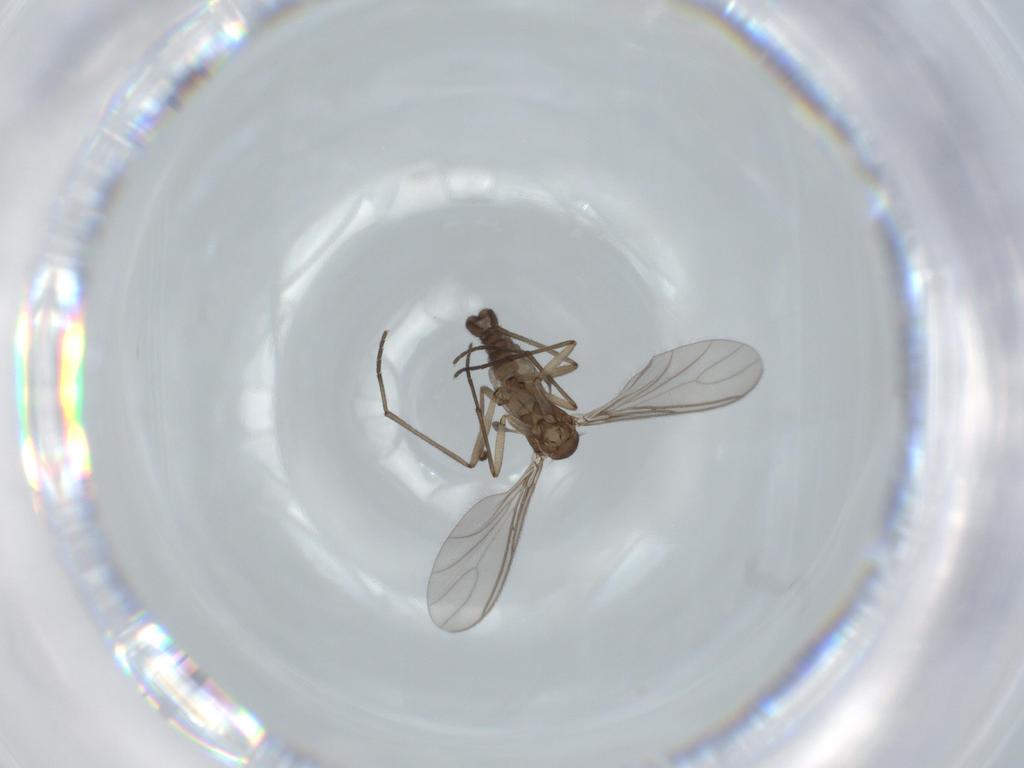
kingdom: Animalia
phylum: Arthropoda
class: Insecta
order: Diptera
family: Sciaridae
